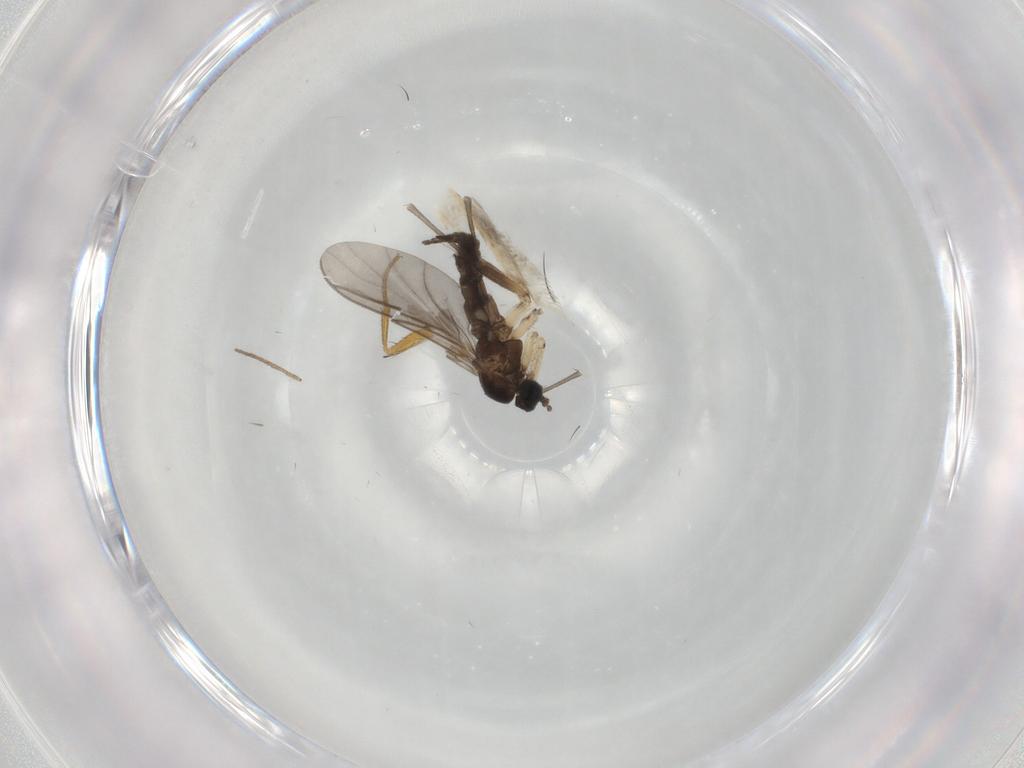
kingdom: Animalia
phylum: Arthropoda
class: Insecta
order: Diptera
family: Sciaridae
